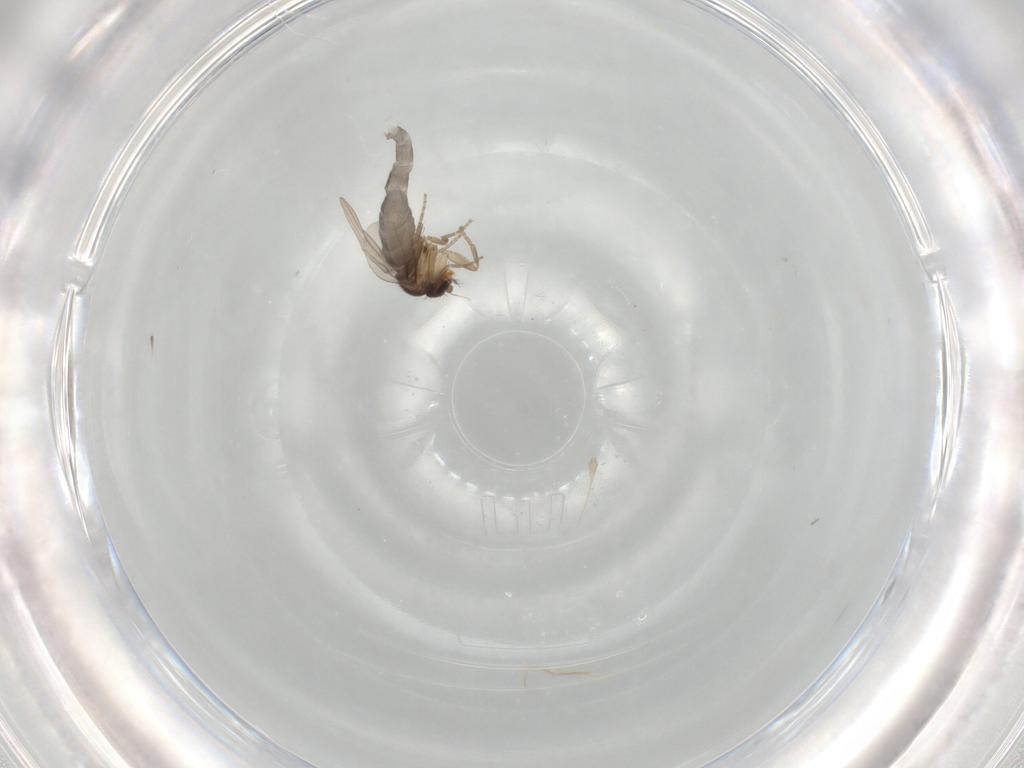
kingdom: Animalia
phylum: Arthropoda
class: Insecta
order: Diptera
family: Phoridae
